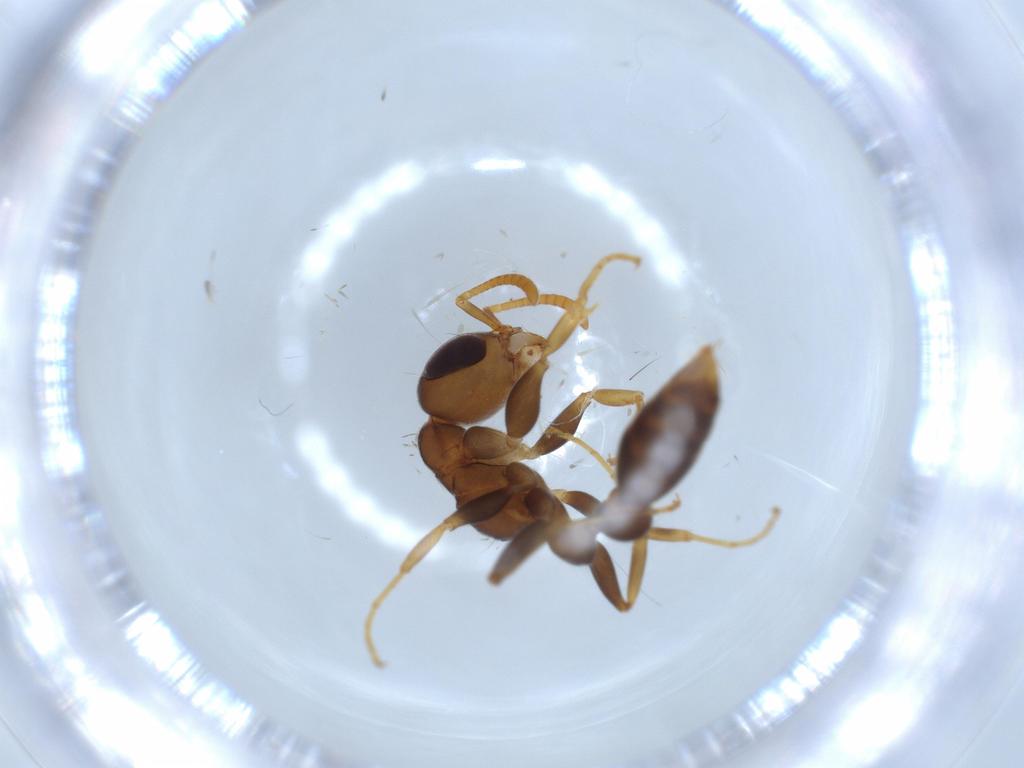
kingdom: Animalia
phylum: Arthropoda
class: Insecta
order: Hymenoptera
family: Formicidae
